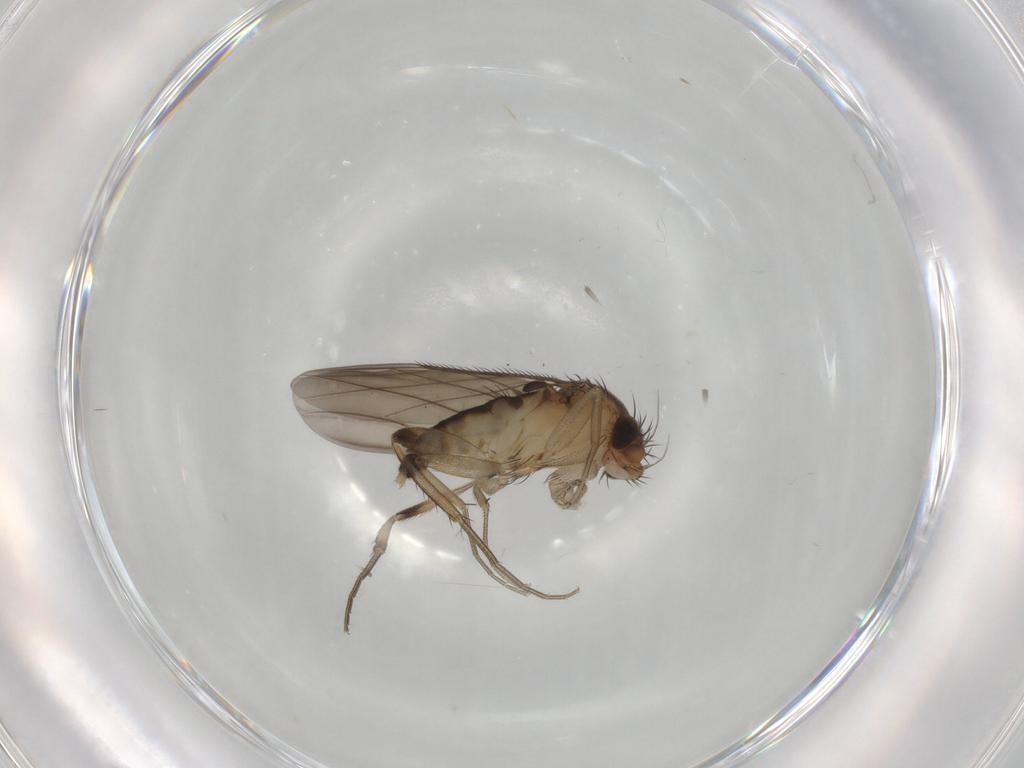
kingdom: Animalia
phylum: Arthropoda
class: Insecta
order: Diptera
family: Phoridae
